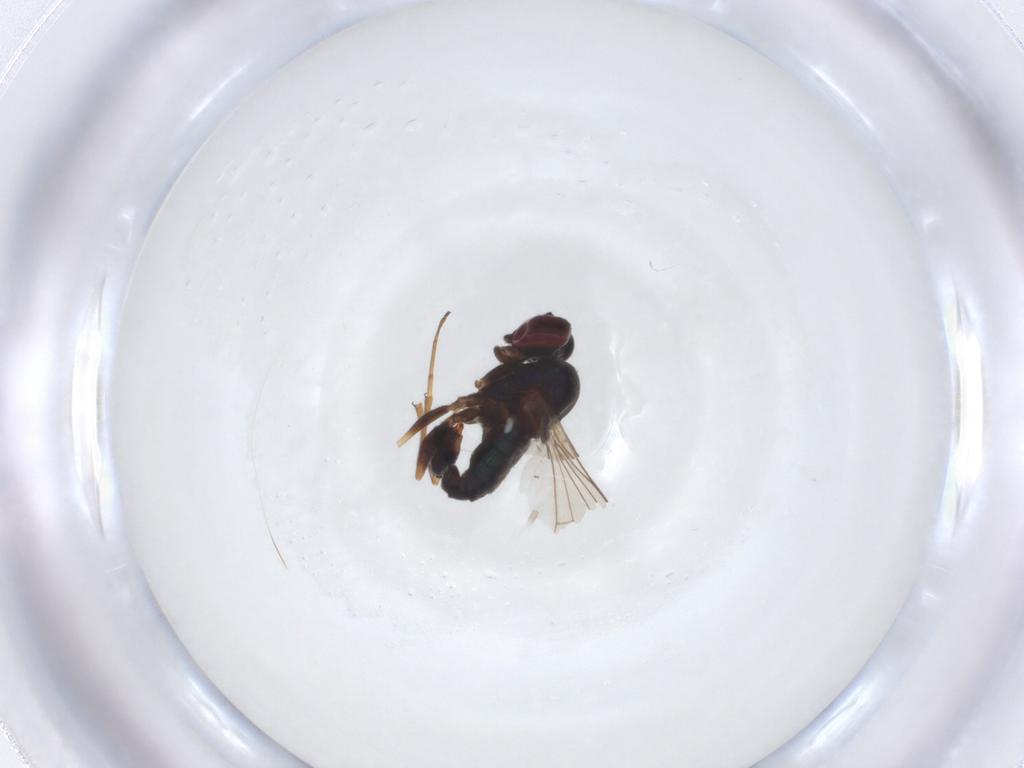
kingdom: Animalia
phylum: Arthropoda
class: Insecta
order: Diptera
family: Dolichopodidae
